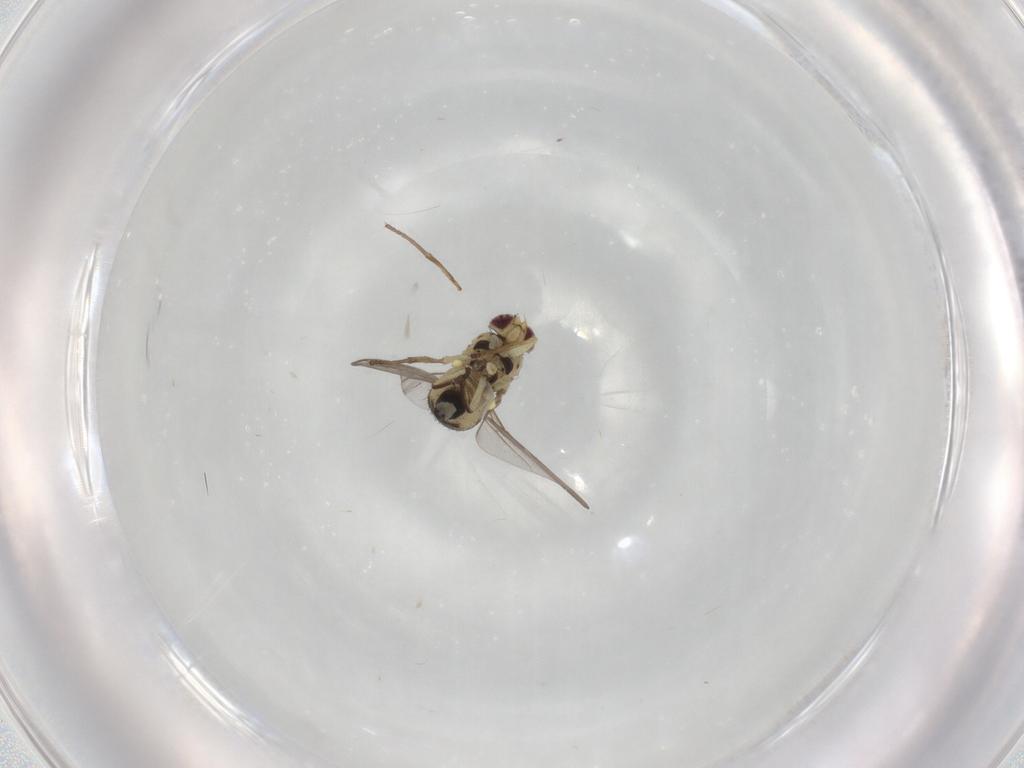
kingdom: Animalia
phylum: Arthropoda
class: Insecta
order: Diptera
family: Agromyzidae
